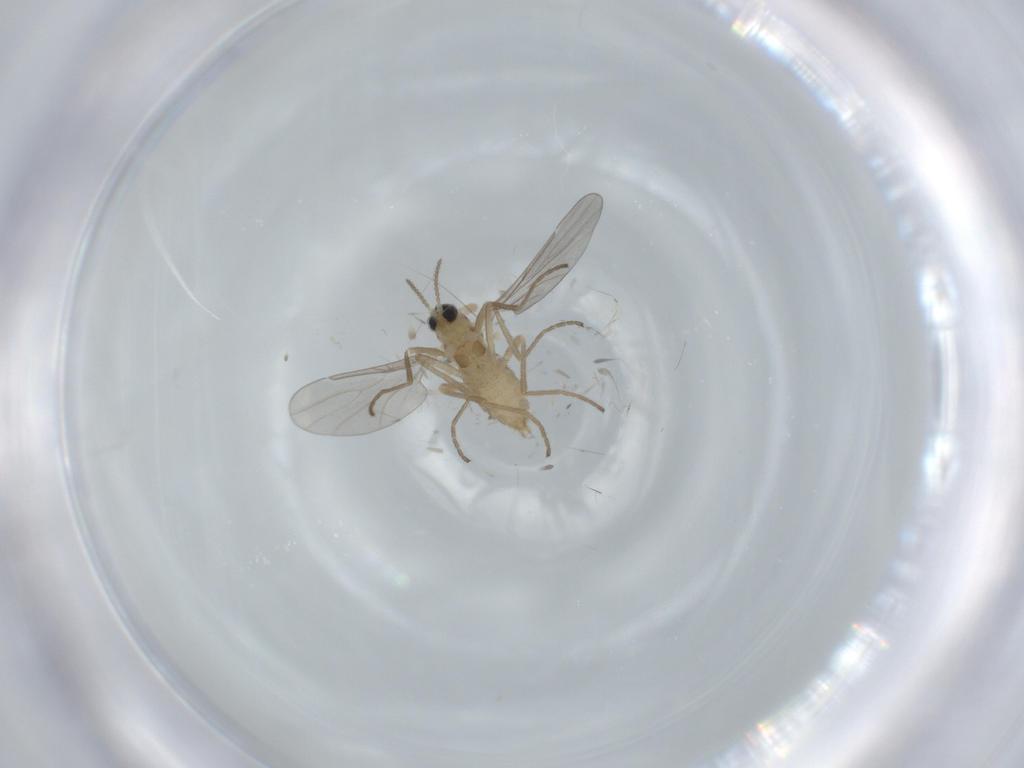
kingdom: Animalia
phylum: Arthropoda
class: Insecta
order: Diptera
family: Cecidomyiidae
